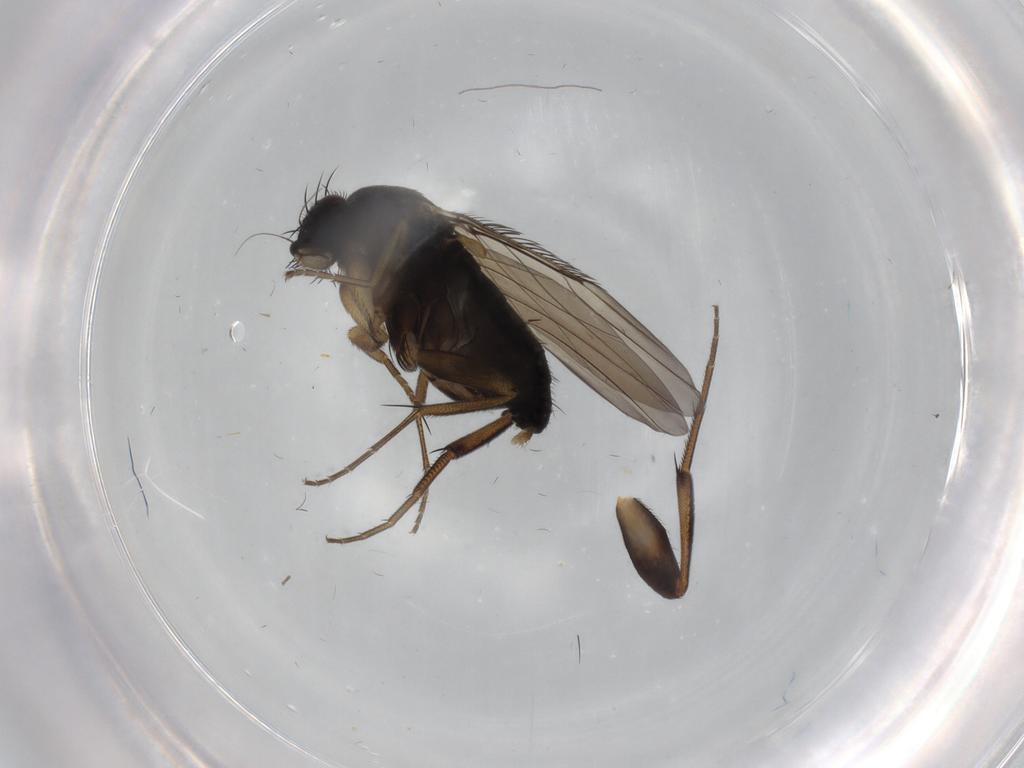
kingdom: Animalia
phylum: Arthropoda
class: Insecta
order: Diptera
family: Phoridae
